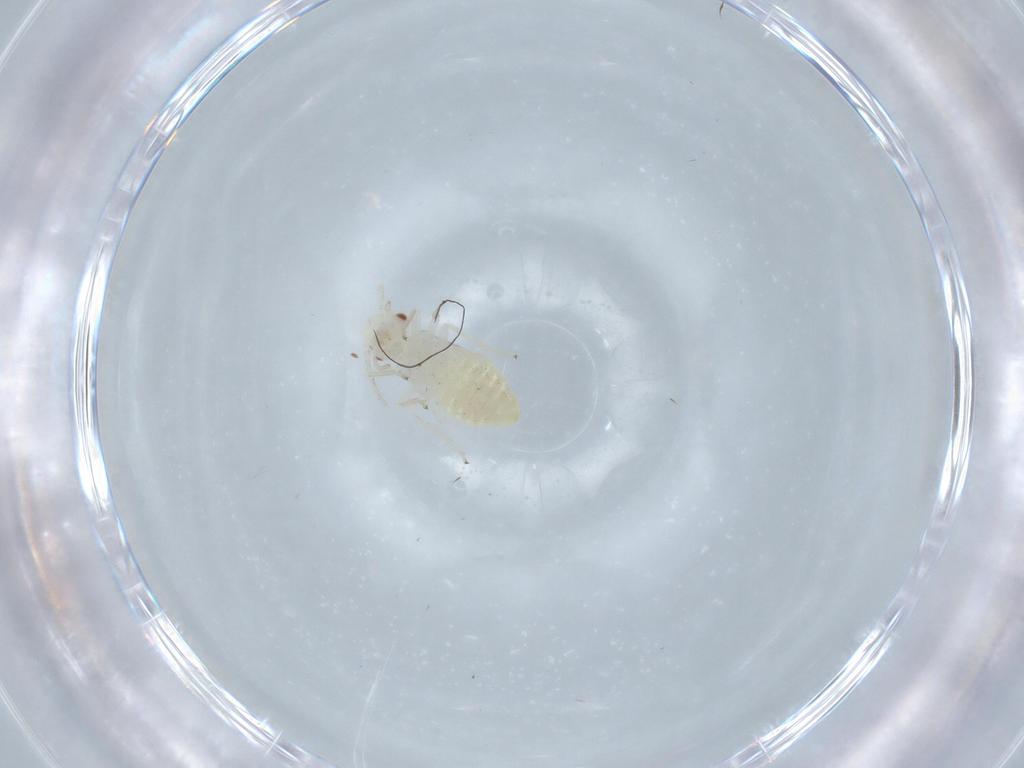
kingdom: Animalia
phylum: Arthropoda
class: Insecta
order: Psocodea
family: Caeciliusidae
